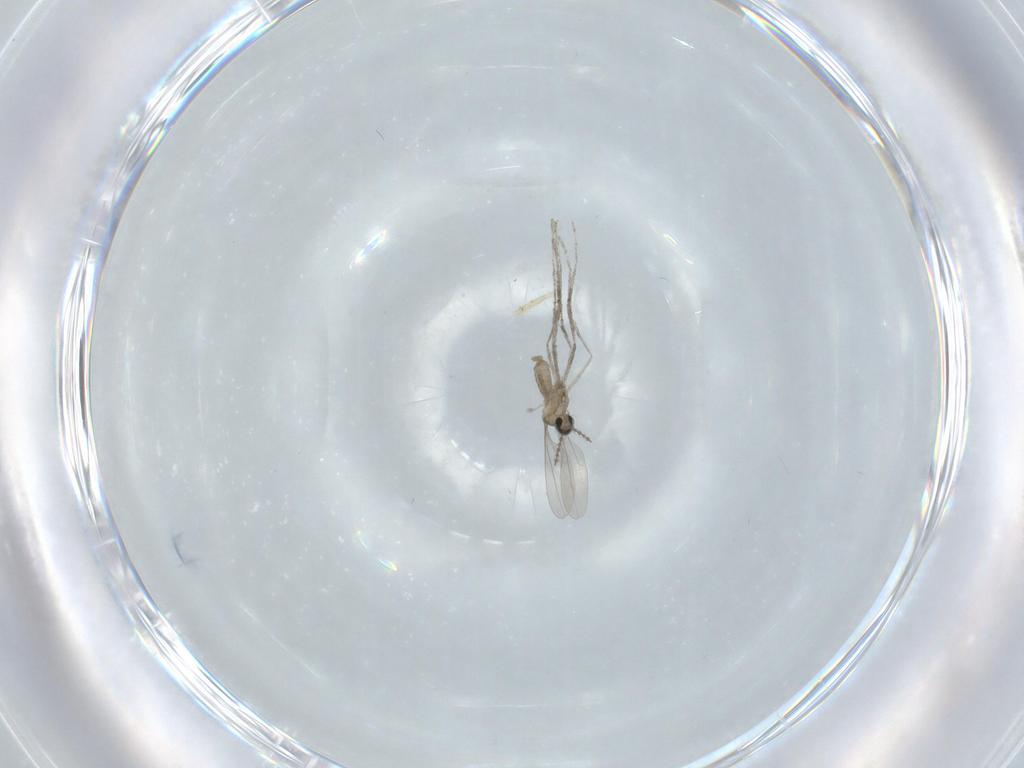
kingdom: Animalia
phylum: Arthropoda
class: Insecta
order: Diptera
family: Cecidomyiidae
